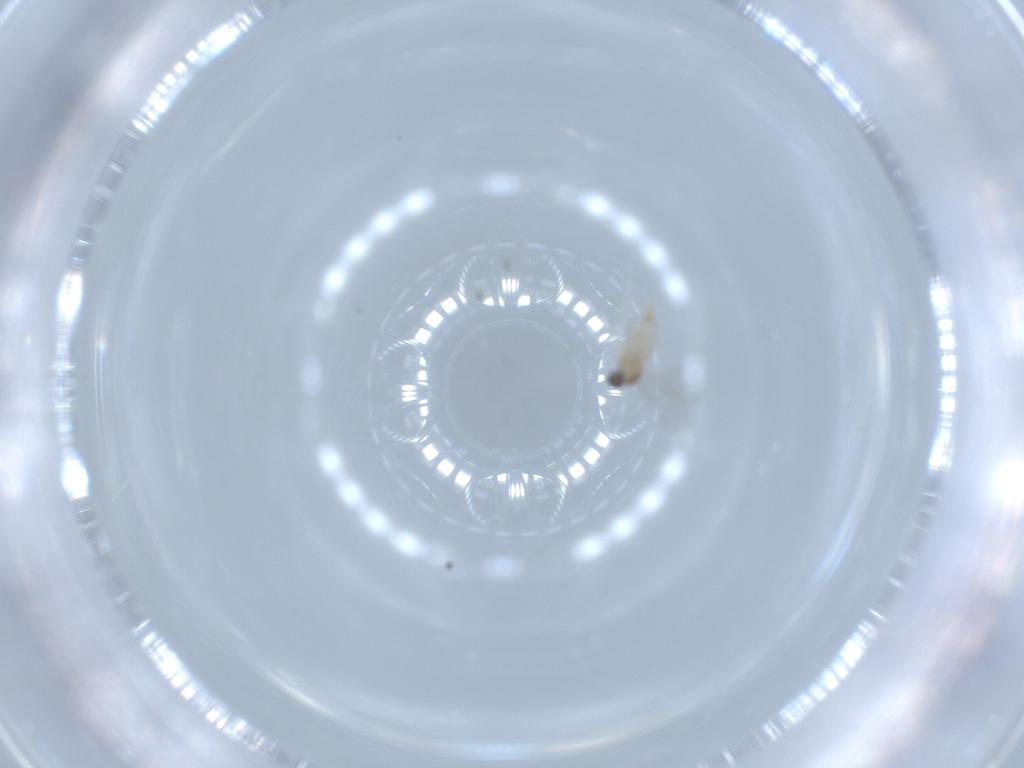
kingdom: Animalia
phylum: Arthropoda
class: Insecta
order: Diptera
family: Cecidomyiidae
